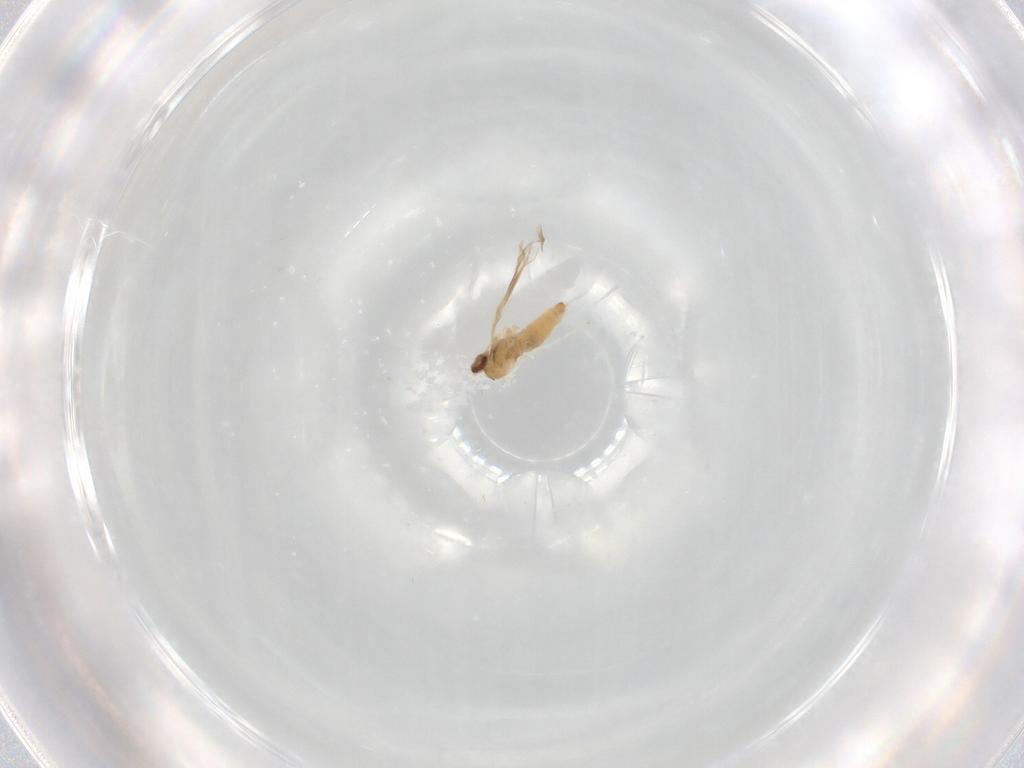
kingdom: Animalia
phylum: Arthropoda
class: Insecta
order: Diptera
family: Cecidomyiidae
